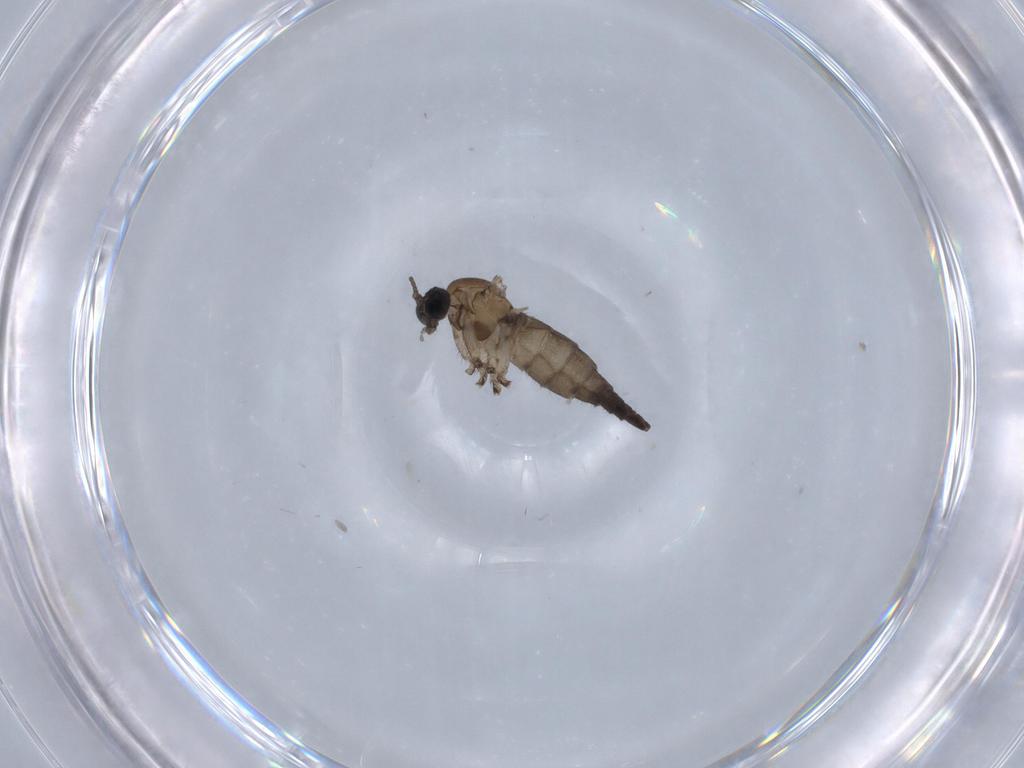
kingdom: Animalia
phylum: Arthropoda
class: Insecta
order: Diptera
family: Sciaridae
